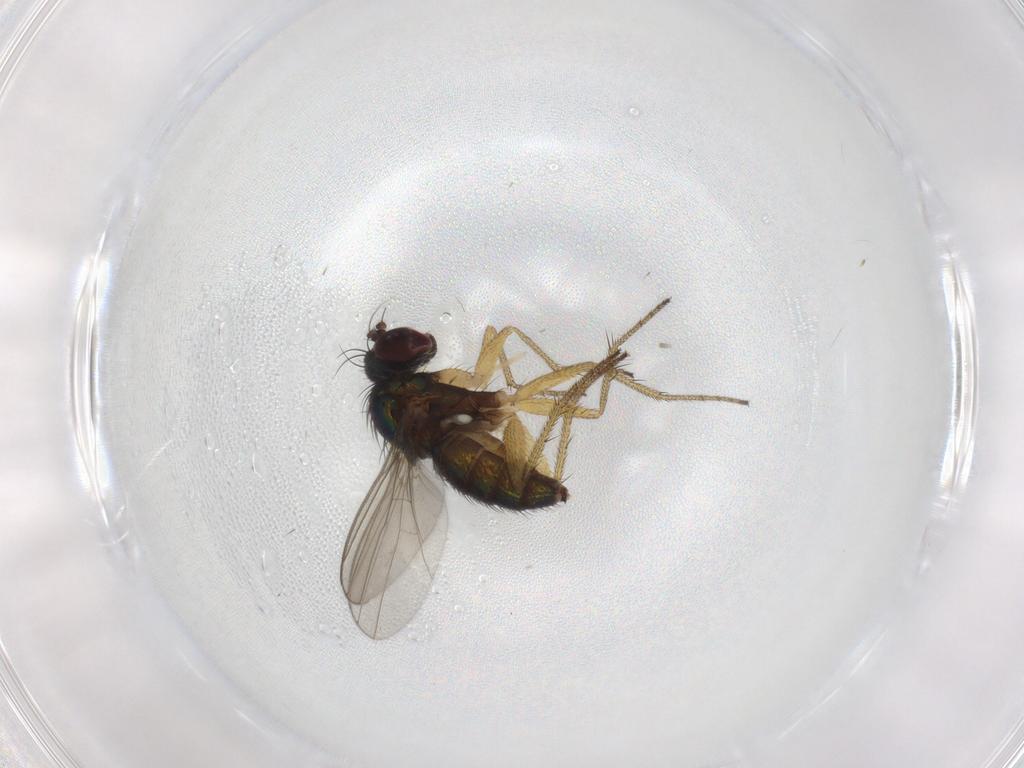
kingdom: Animalia
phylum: Arthropoda
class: Insecta
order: Diptera
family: Dolichopodidae
